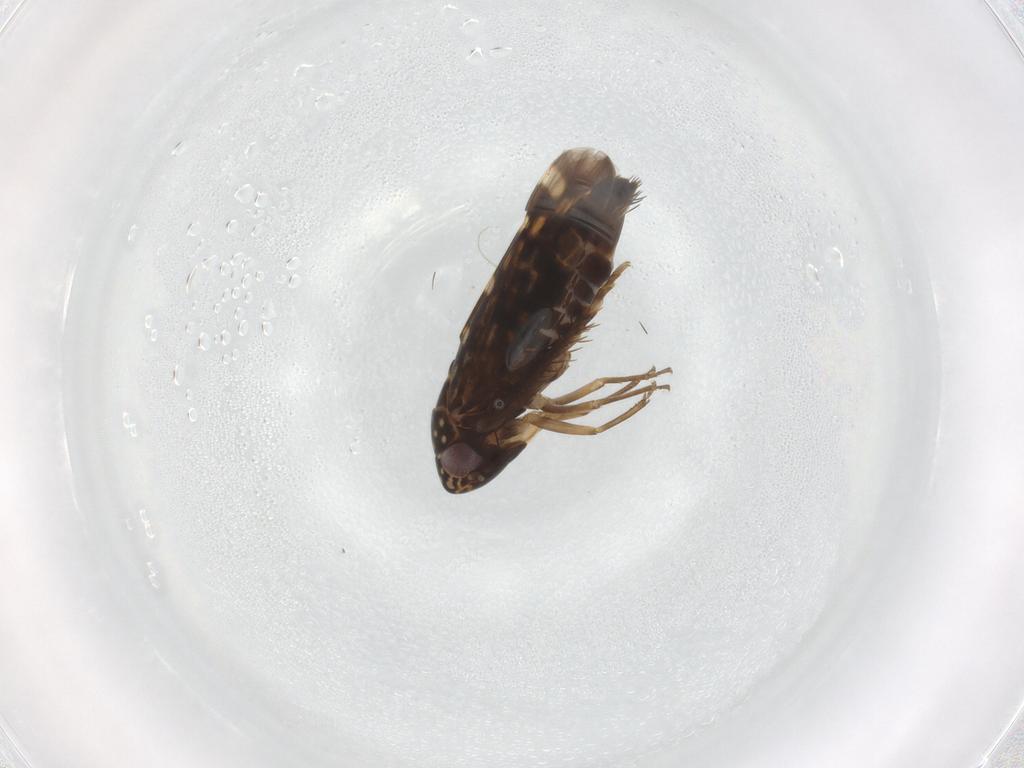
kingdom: Animalia
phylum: Arthropoda
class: Insecta
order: Hemiptera
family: Cicadellidae
